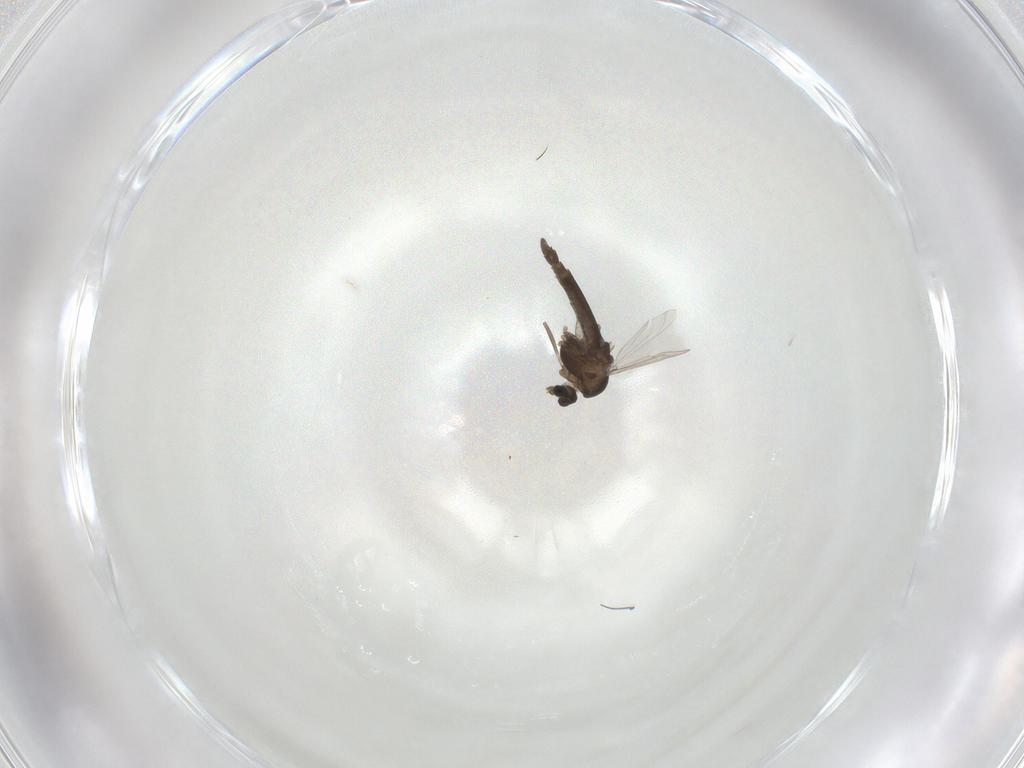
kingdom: Animalia
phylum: Arthropoda
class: Insecta
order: Diptera
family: Chironomidae
